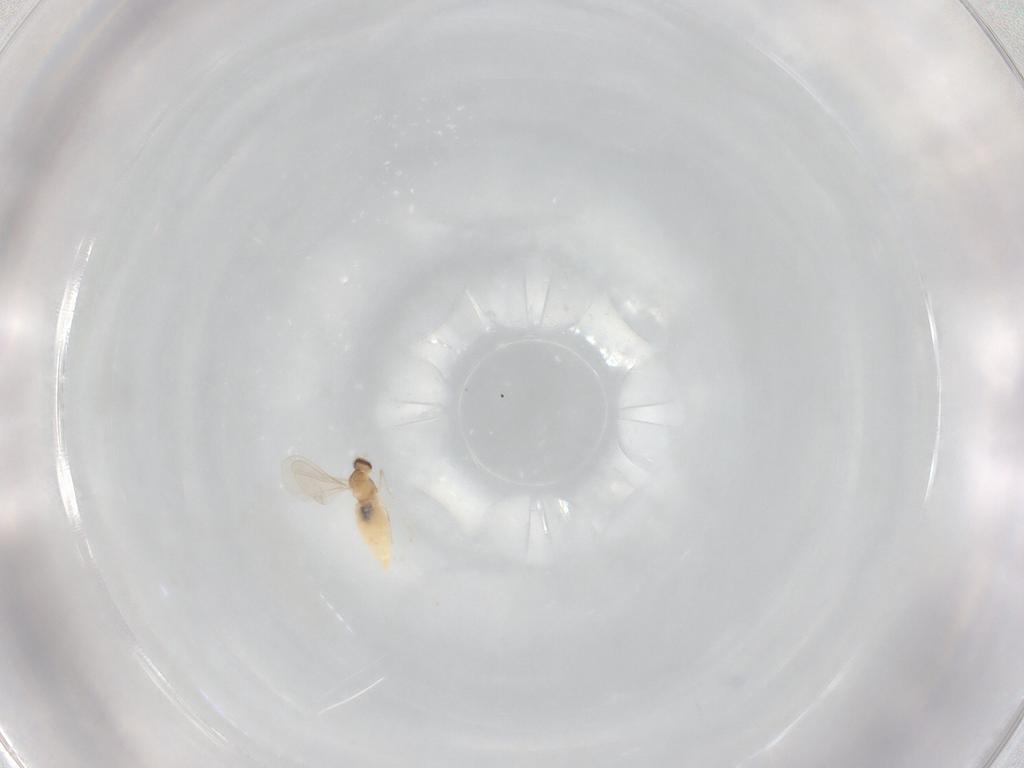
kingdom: Animalia
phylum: Arthropoda
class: Insecta
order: Diptera
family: Cecidomyiidae
